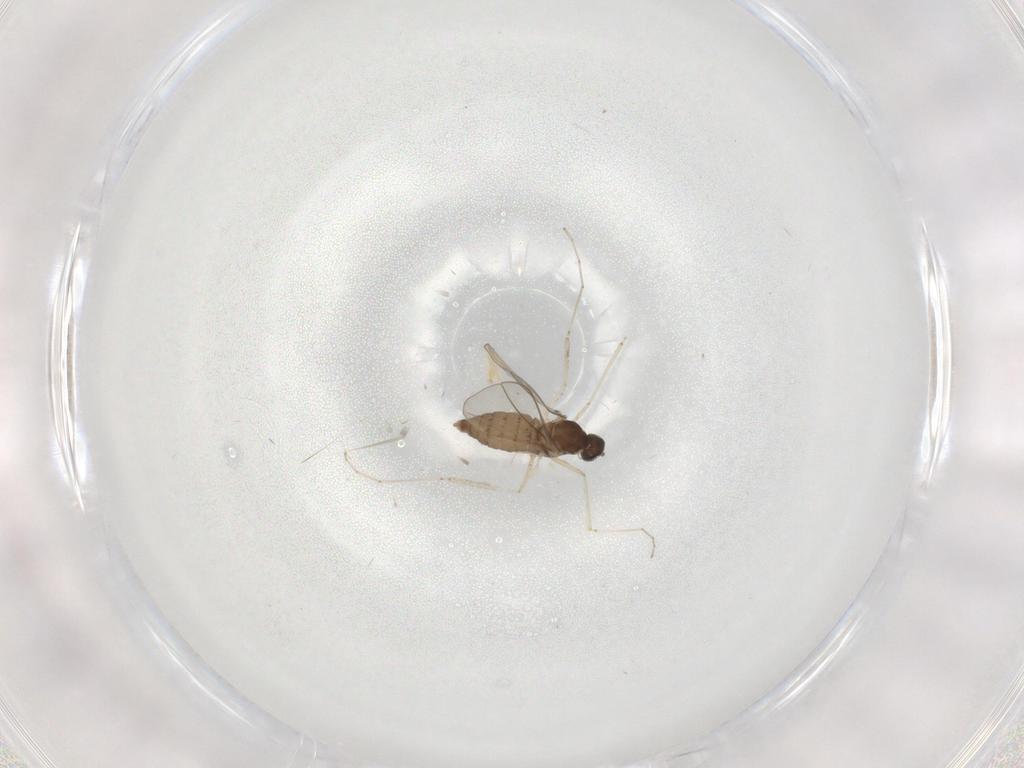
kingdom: Animalia
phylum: Arthropoda
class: Insecta
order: Diptera
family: Cecidomyiidae
